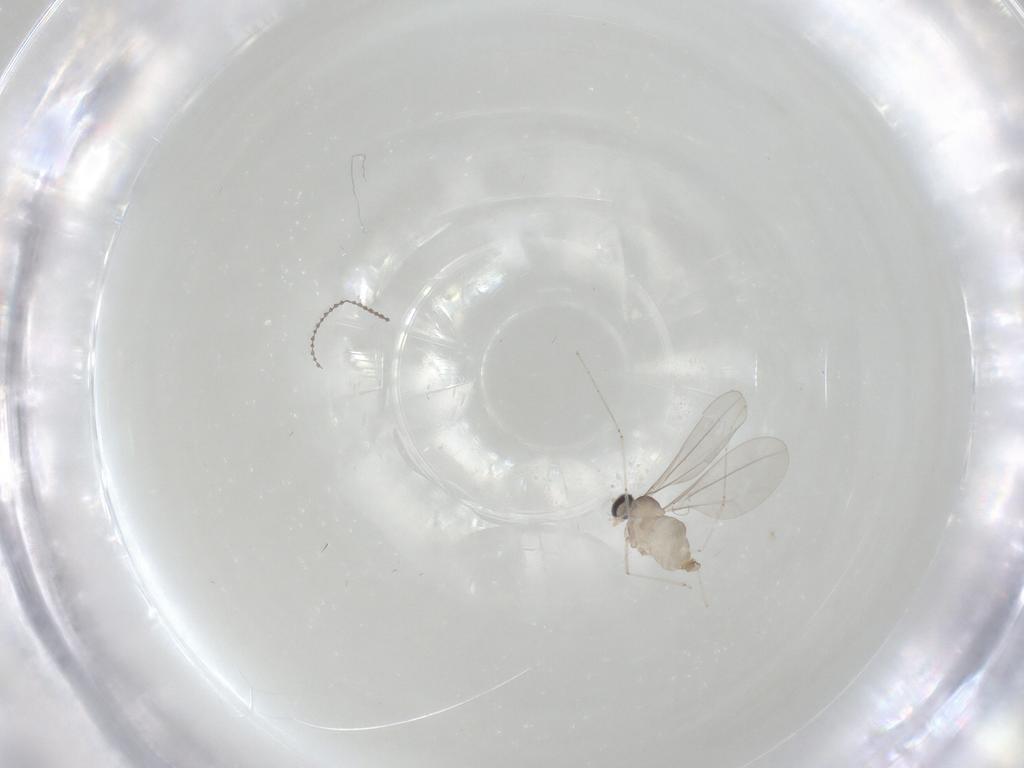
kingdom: Animalia
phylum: Arthropoda
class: Insecta
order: Diptera
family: Cecidomyiidae
